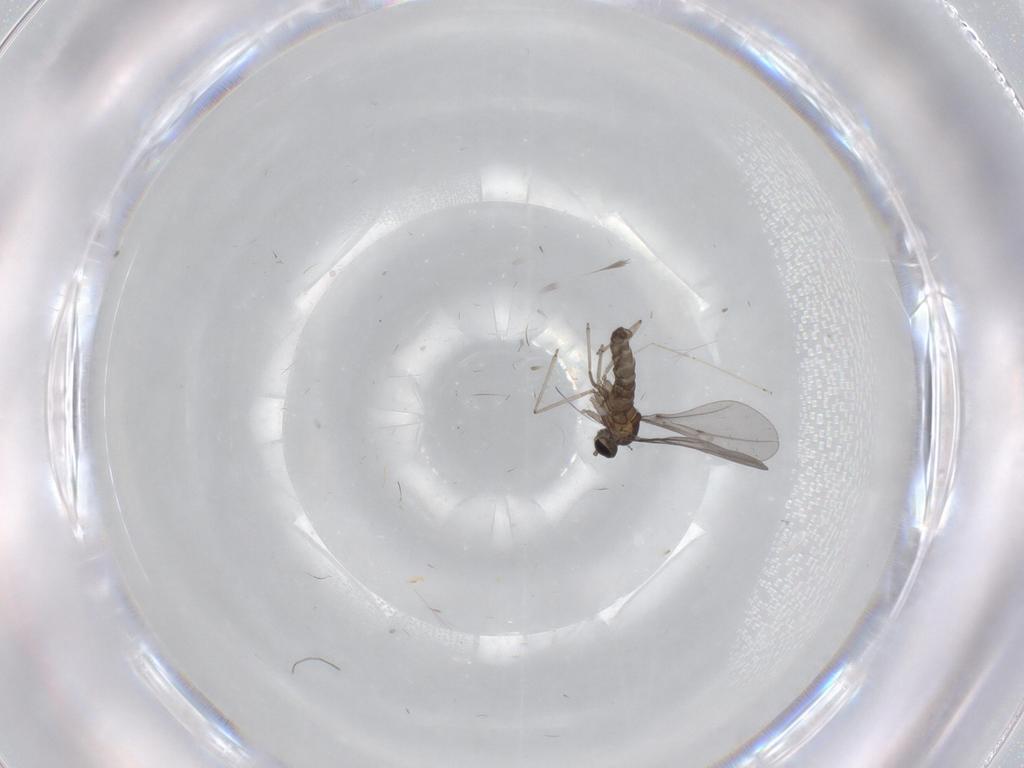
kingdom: Animalia
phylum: Arthropoda
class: Insecta
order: Diptera
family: Cecidomyiidae
